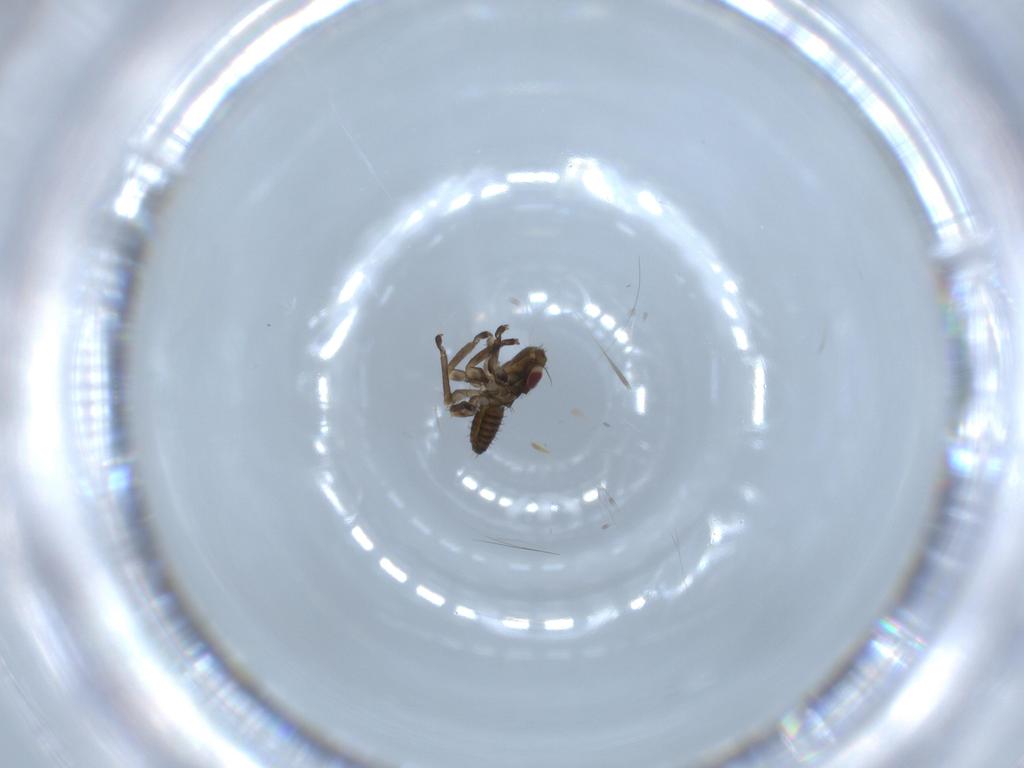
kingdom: Animalia
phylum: Arthropoda
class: Insecta
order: Hemiptera
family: Cicadellidae
